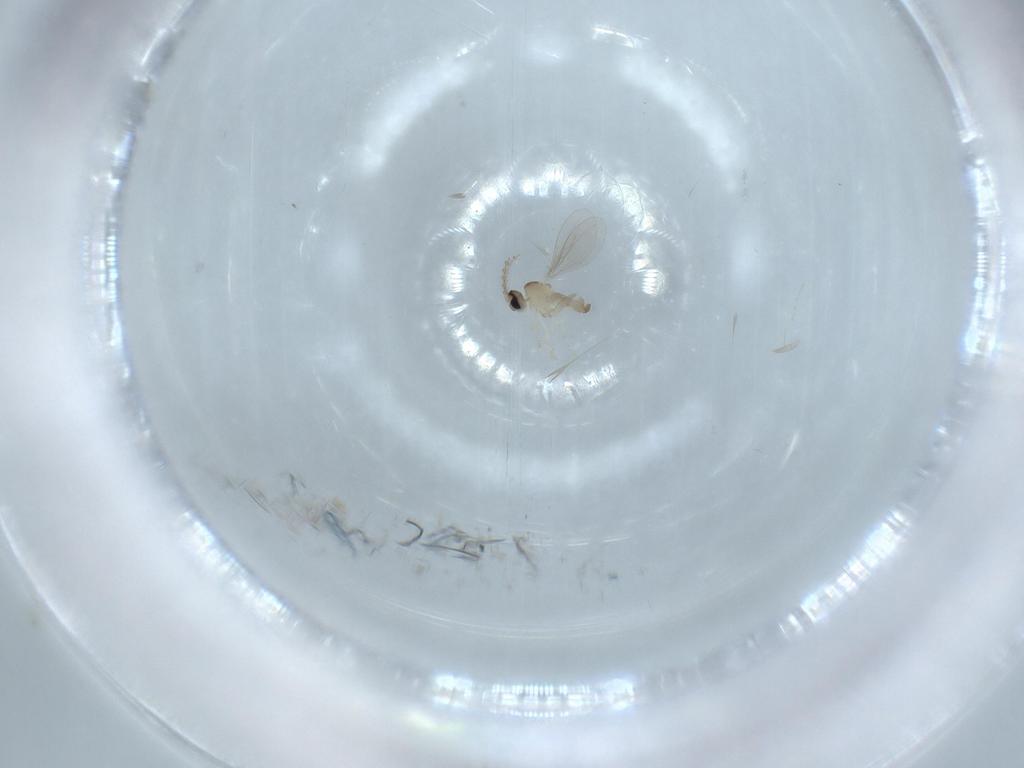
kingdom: Animalia
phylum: Arthropoda
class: Insecta
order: Diptera
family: Cecidomyiidae
